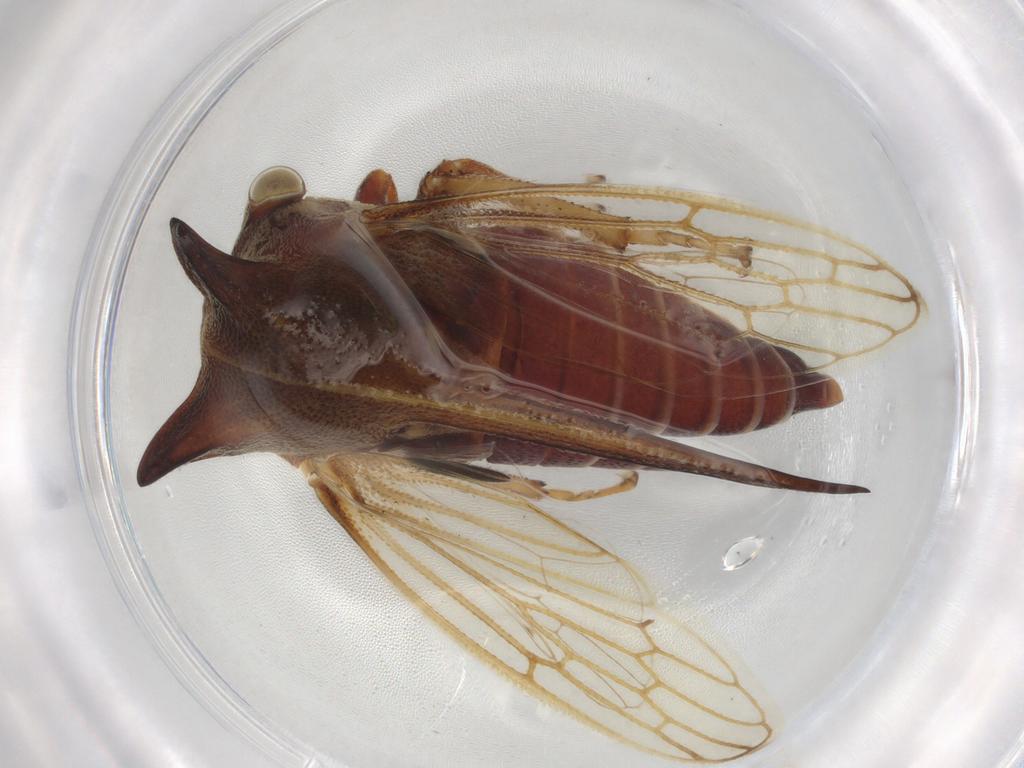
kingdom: Animalia
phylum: Arthropoda
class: Insecta
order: Hemiptera
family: Membracidae
